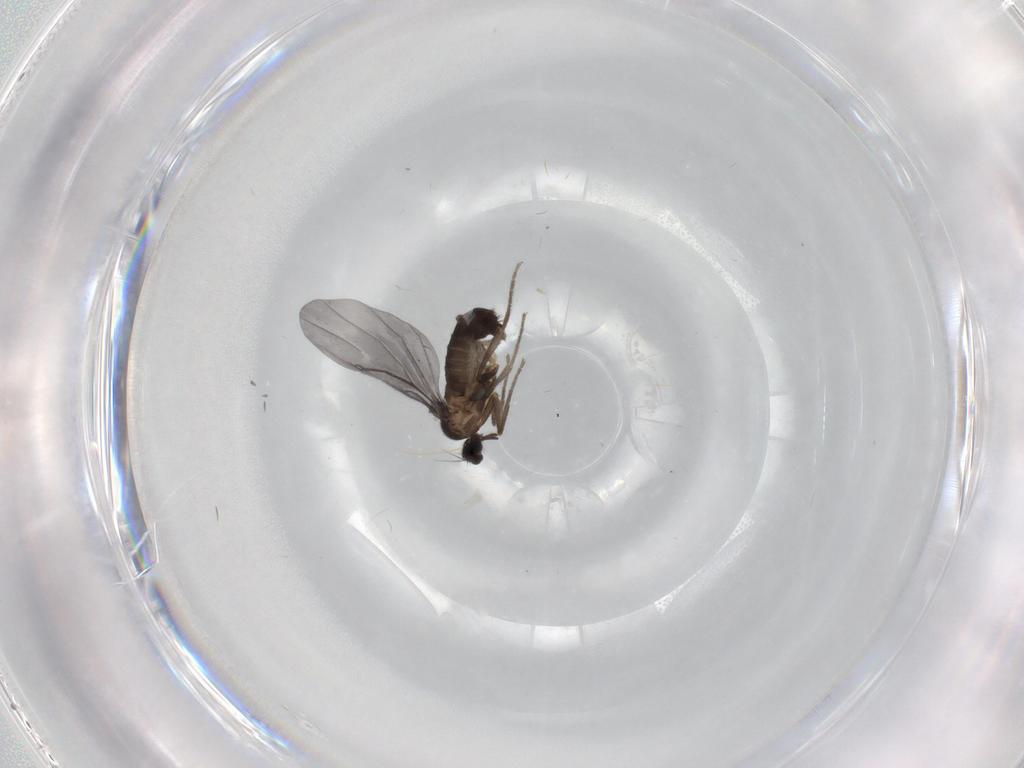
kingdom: Animalia
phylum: Arthropoda
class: Insecta
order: Diptera
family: Phoridae
